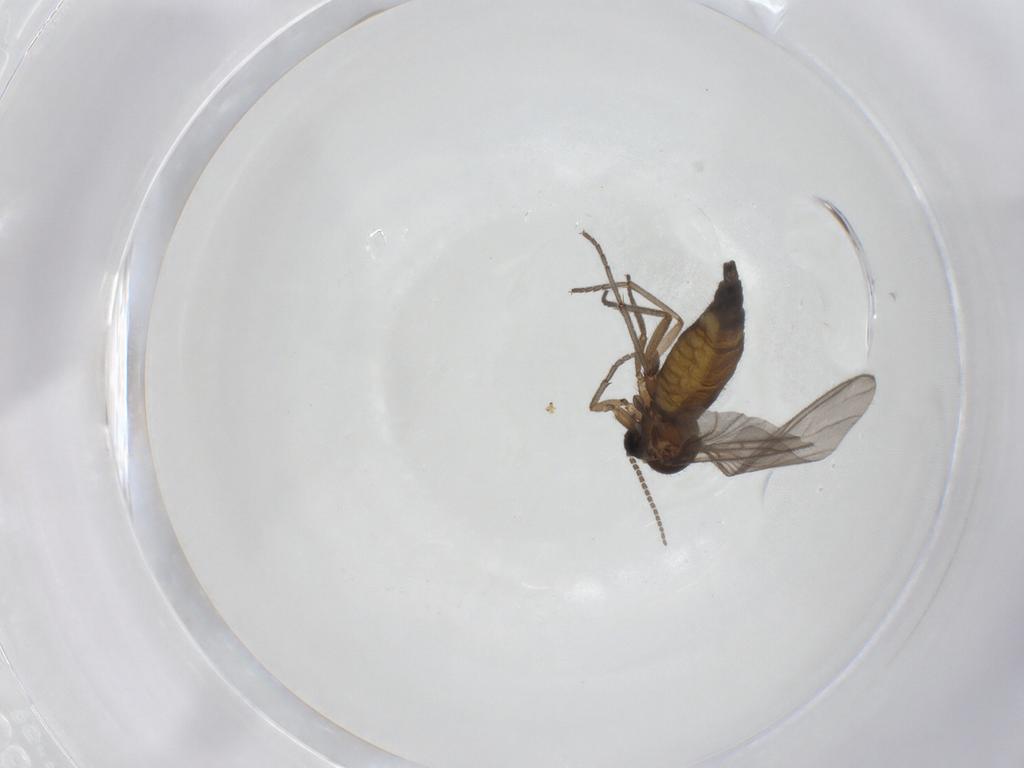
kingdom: Animalia
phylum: Arthropoda
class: Insecta
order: Diptera
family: Sciaridae
